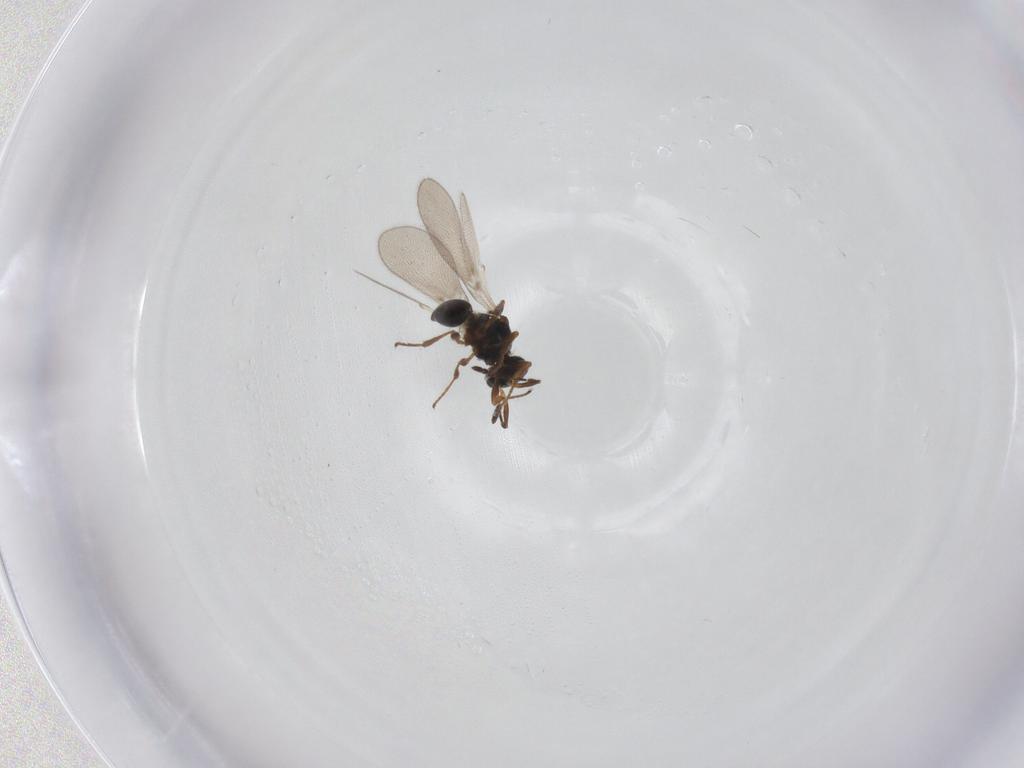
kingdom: Animalia
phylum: Arthropoda
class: Insecta
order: Hymenoptera
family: Platygastridae
